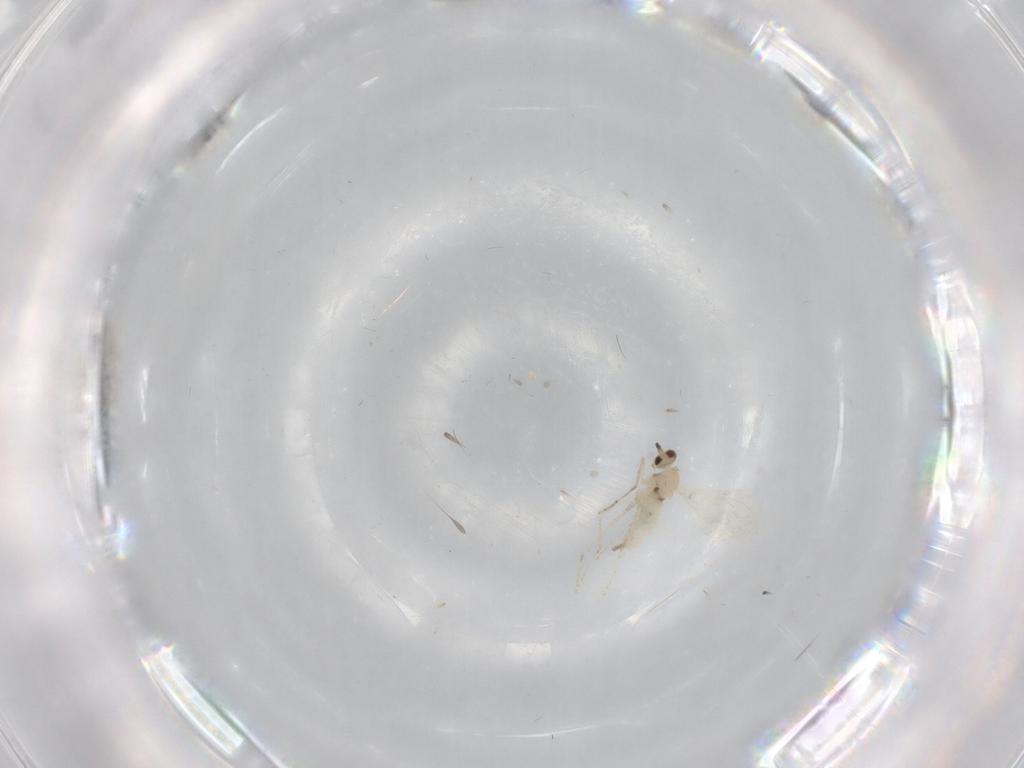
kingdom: Animalia
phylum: Arthropoda
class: Insecta
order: Diptera
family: Cecidomyiidae
